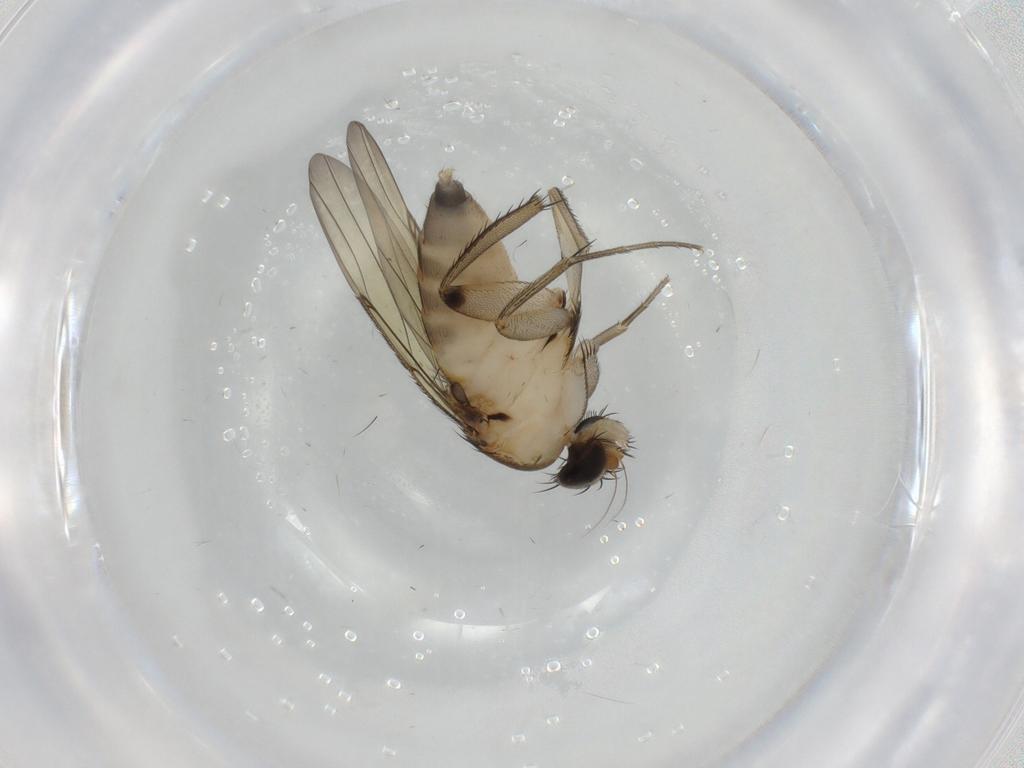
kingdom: Animalia
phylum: Arthropoda
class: Insecta
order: Diptera
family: Phoridae
